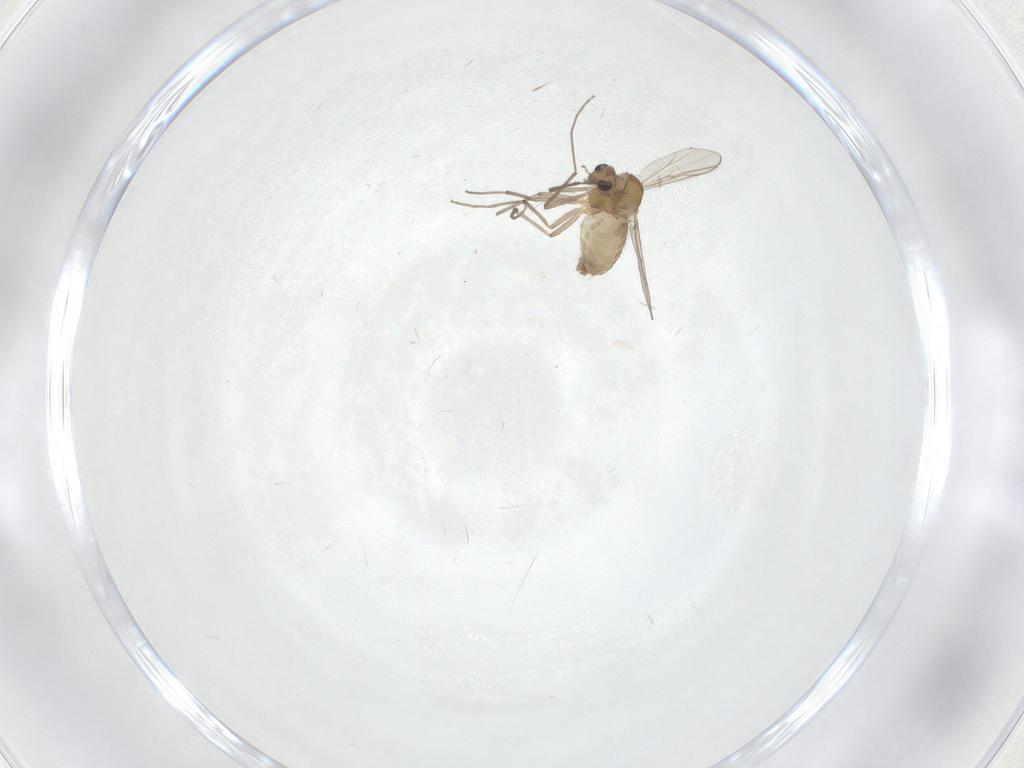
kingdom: Animalia
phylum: Arthropoda
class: Insecta
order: Diptera
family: Chironomidae
